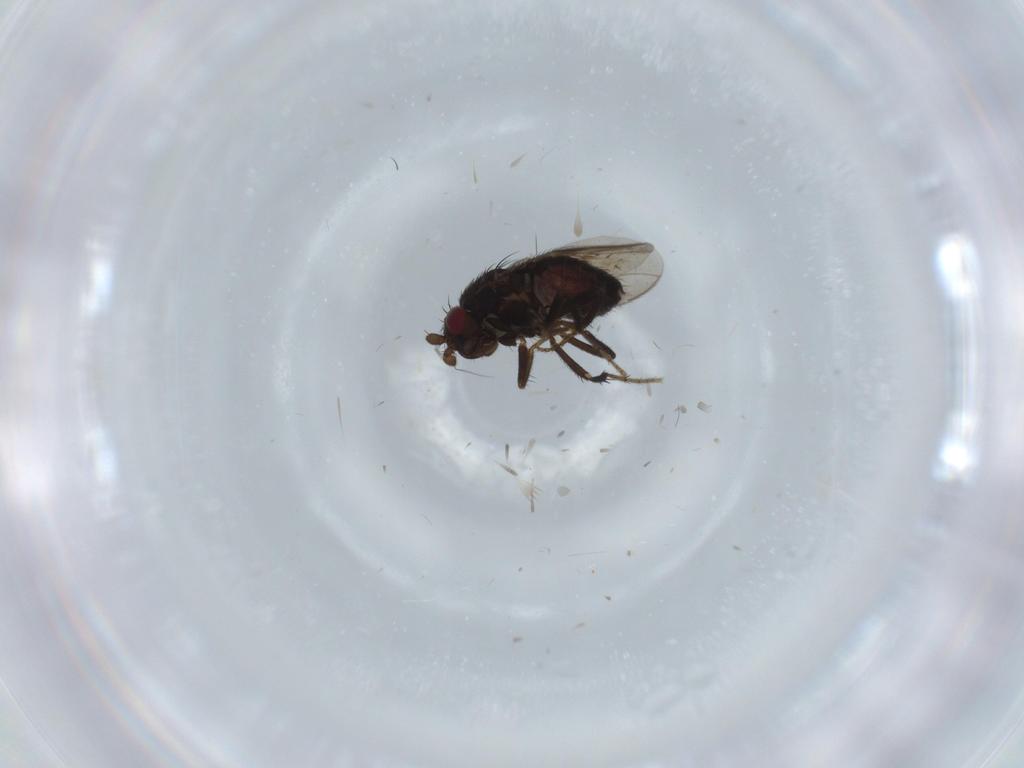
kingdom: Animalia
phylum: Arthropoda
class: Insecta
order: Diptera
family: Sphaeroceridae
